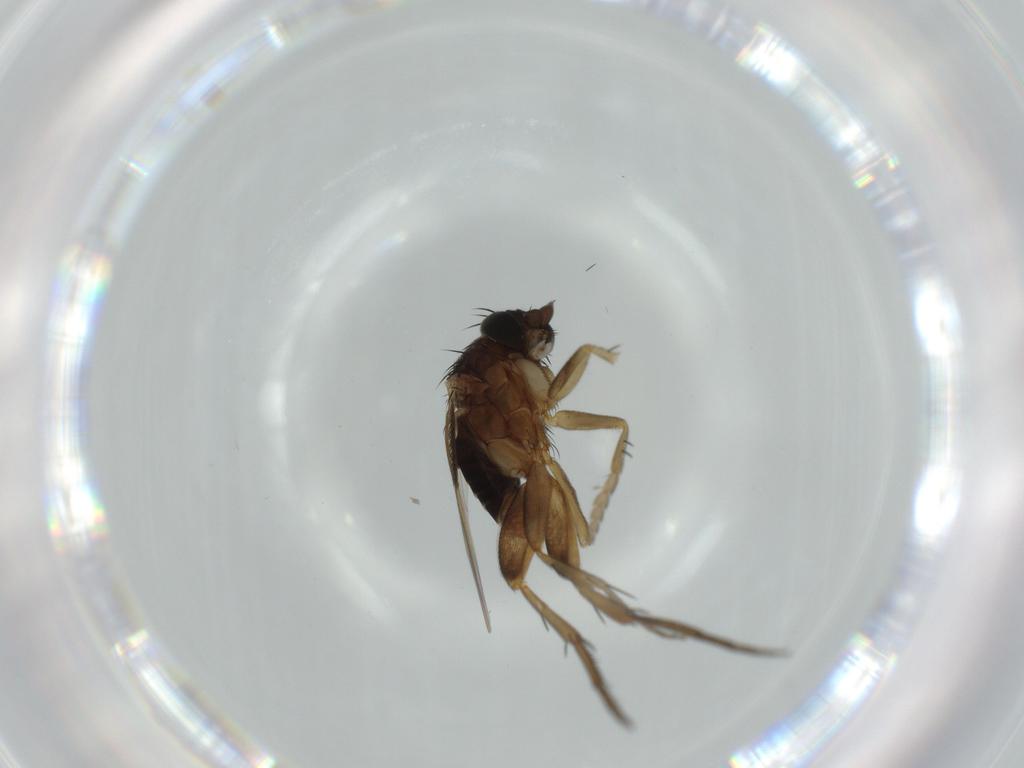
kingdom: Animalia
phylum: Arthropoda
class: Insecta
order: Diptera
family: Phoridae
